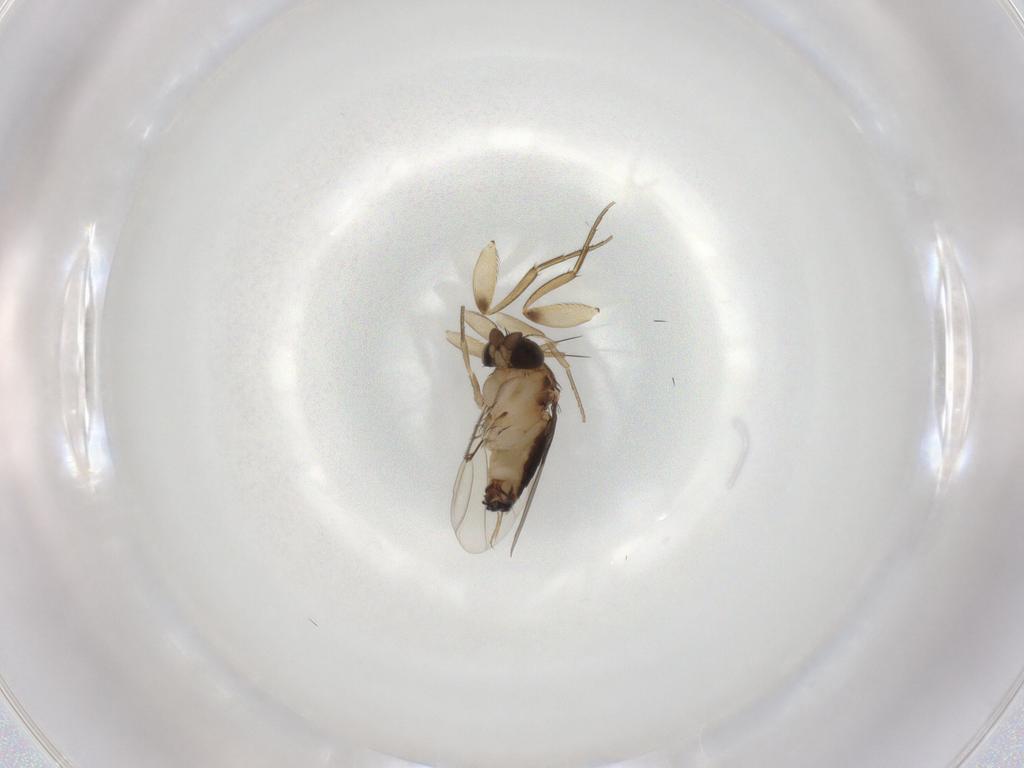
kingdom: Animalia
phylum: Arthropoda
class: Insecta
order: Diptera
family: Phoridae
